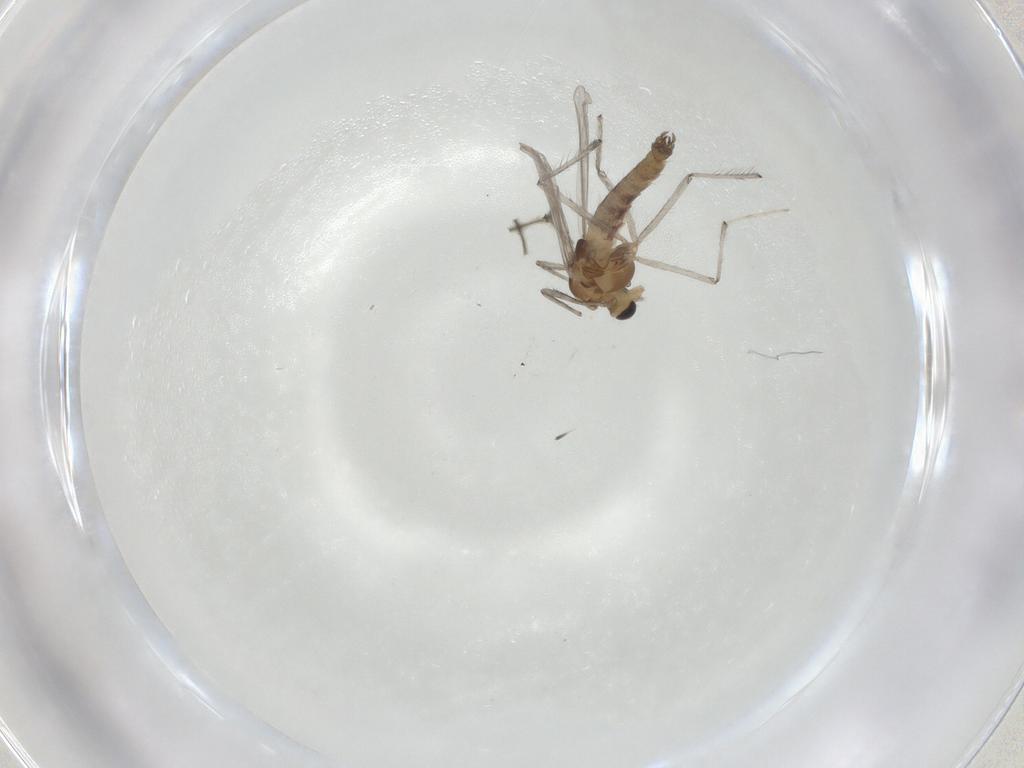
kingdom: Animalia
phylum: Arthropoda
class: Insecta
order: Diptera
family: Chironomidae
